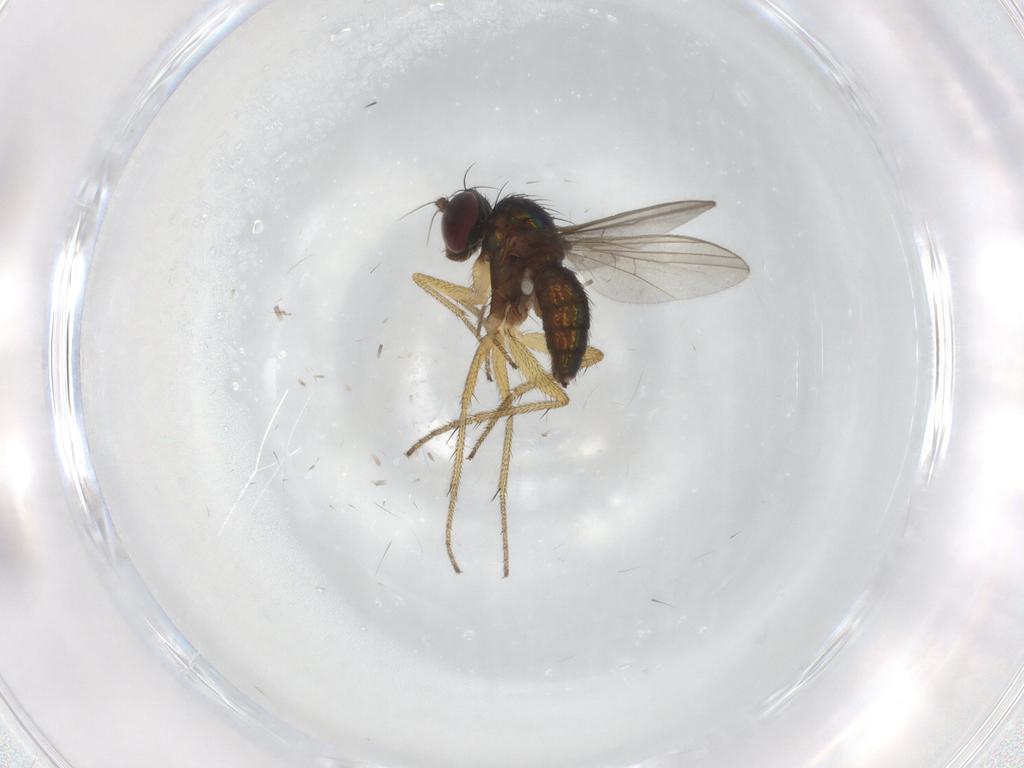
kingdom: Animalia
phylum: Arthropoda
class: Insecta
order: Diptera
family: Dolichopodidae
